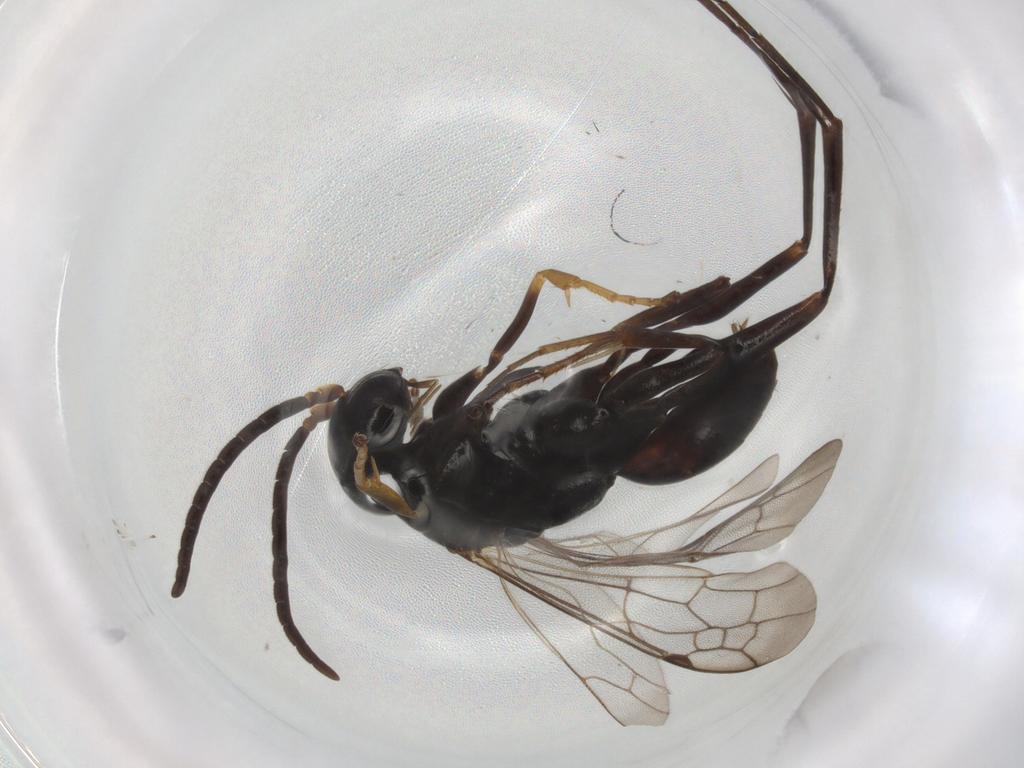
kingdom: Animalia
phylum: Arthropoda
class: Insecta
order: Hymenoptera
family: Pompilidae
